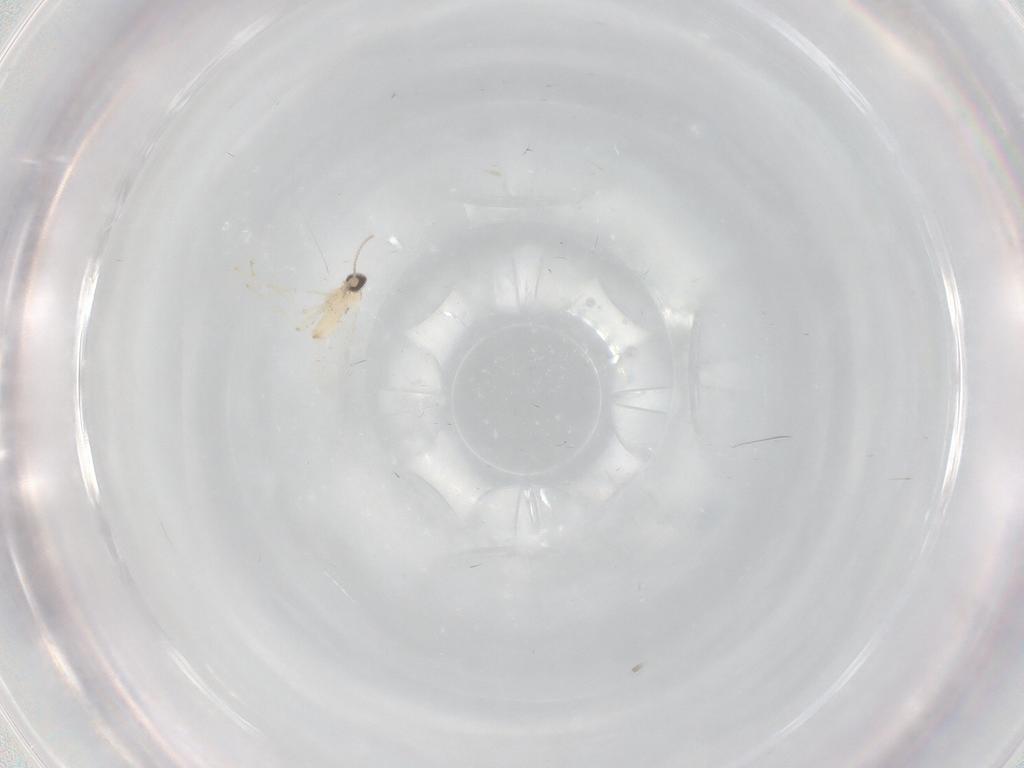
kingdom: Animalia
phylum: Arthropoda
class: Insecta
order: Diptera
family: Cecidomyiidae
